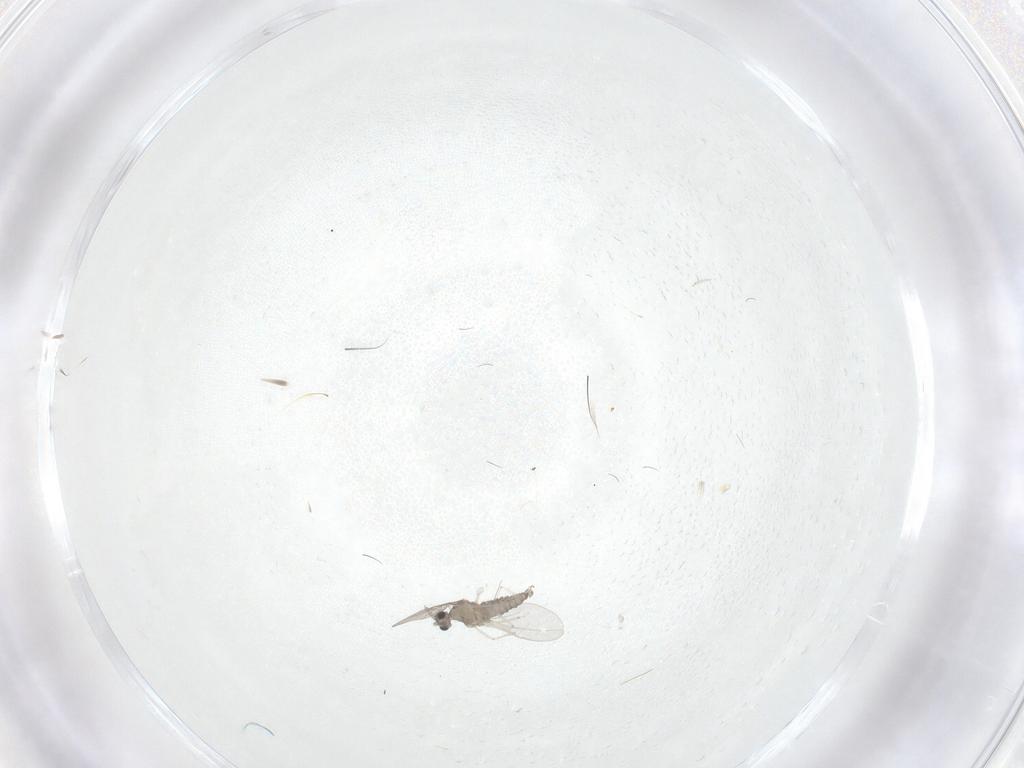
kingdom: Animalia
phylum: Arthropoda
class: Insecta
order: Diptera
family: Cecidomyiidae
